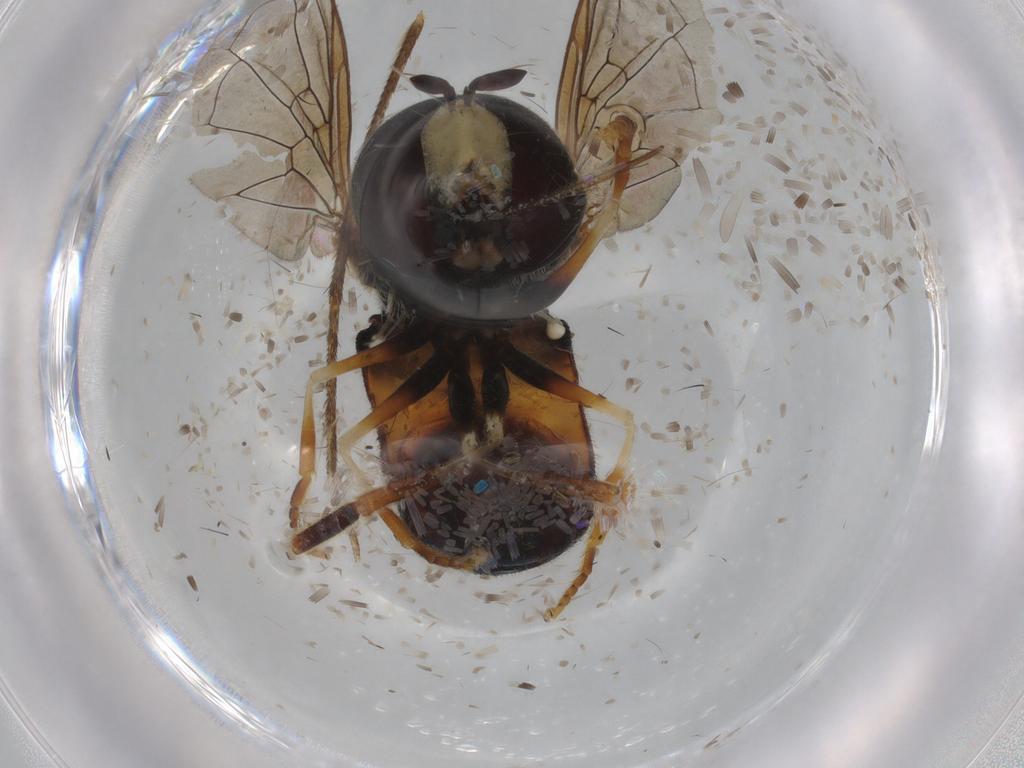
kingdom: Animalia
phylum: Arthropoda
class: Insecta
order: Diptera
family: Syrphidae
